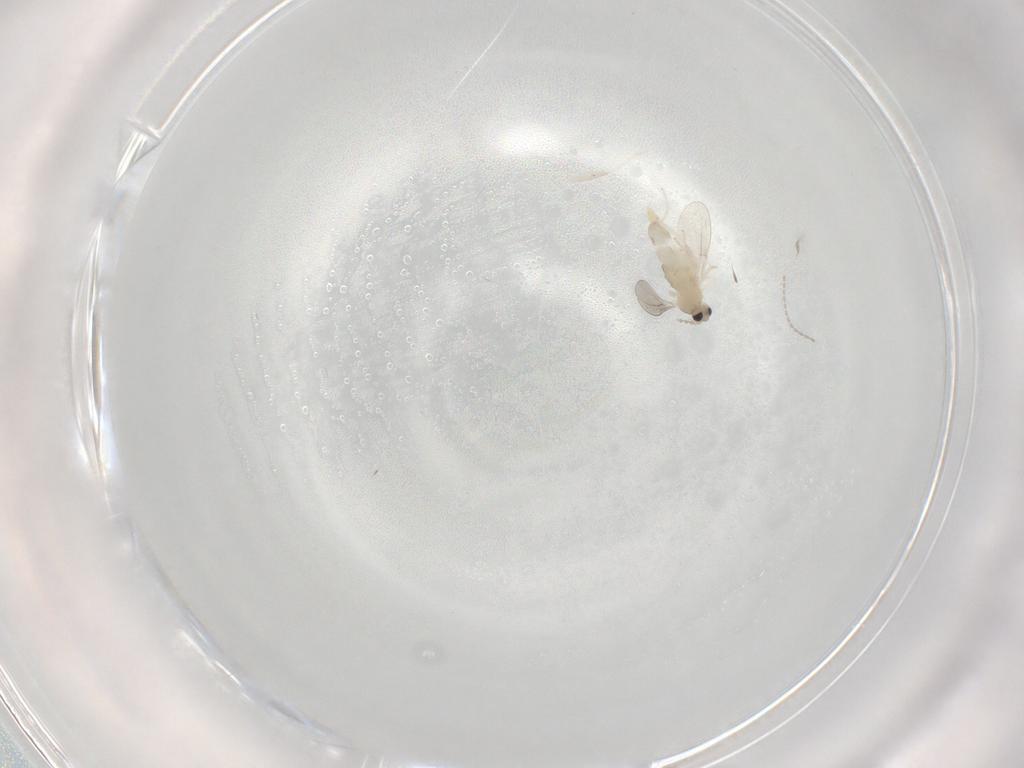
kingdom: Animalia
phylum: Arthropoda
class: Insecta
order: Diptera
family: Cecidomyiidae
